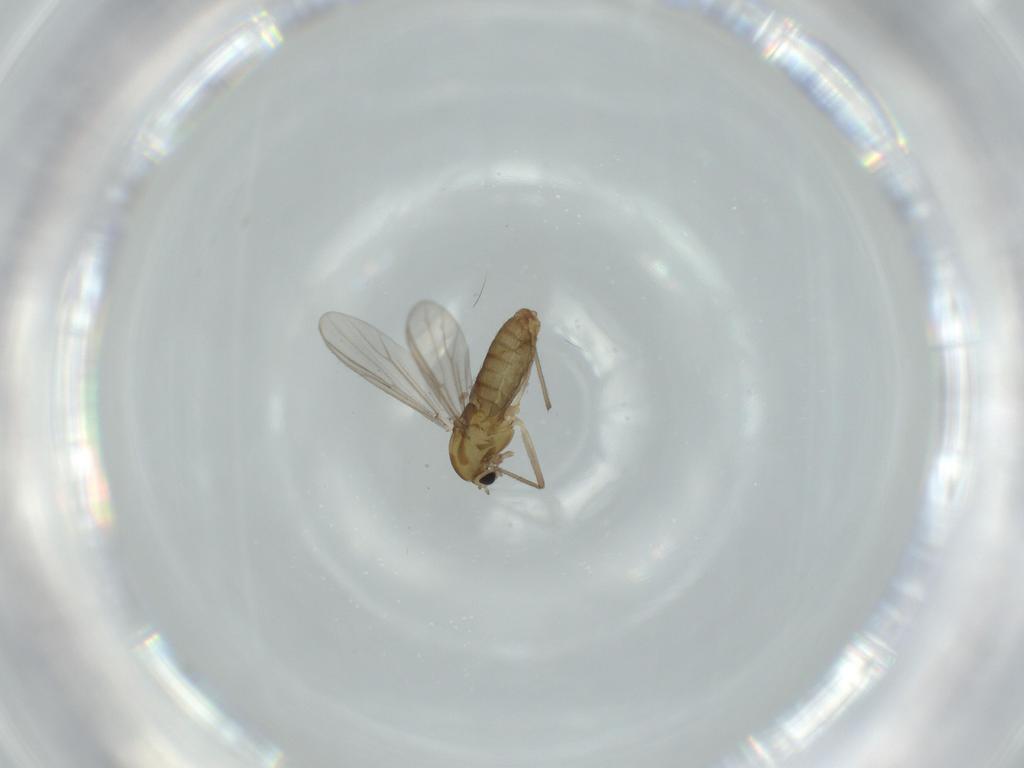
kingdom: Animalia
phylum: Arthropoda
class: Insecta
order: Diptera
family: Chironomidae
